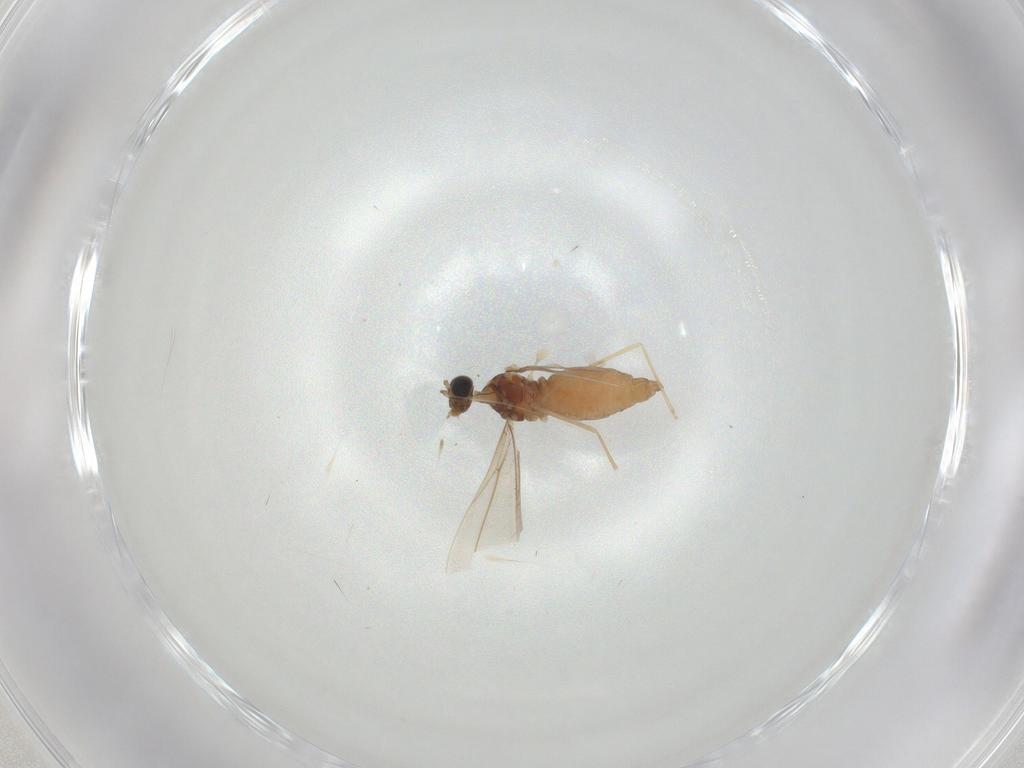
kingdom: Animalia
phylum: Arthropoda
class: Insecta
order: Diptera
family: Cecidomyiidae
